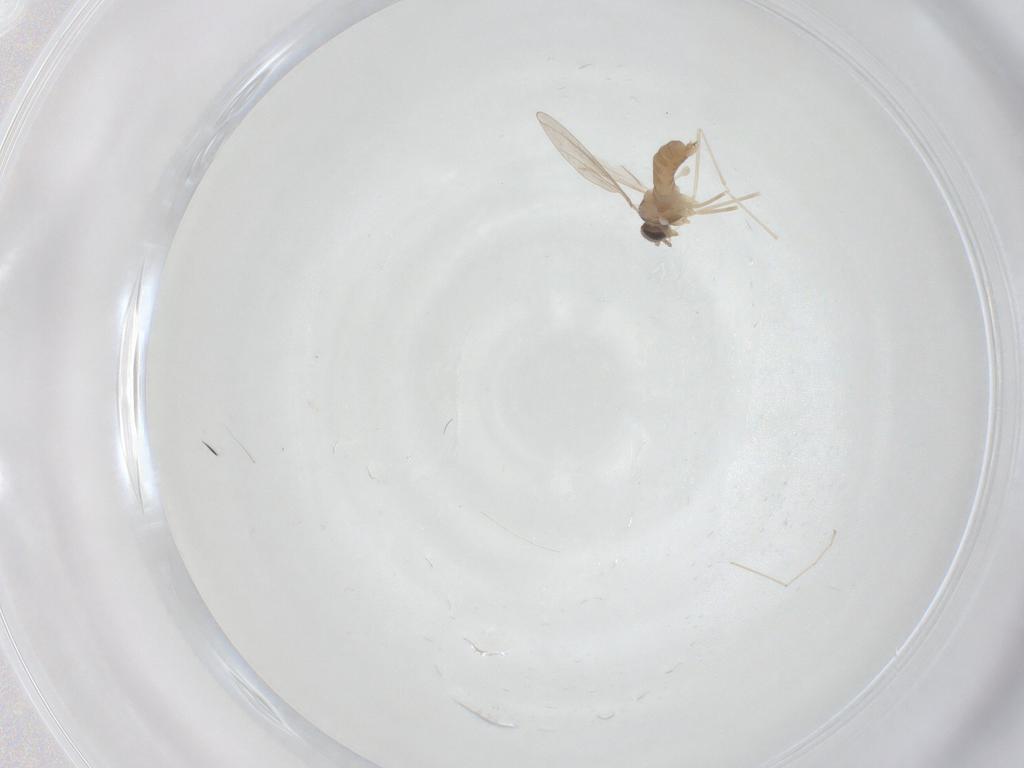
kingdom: Animalia
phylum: Arthropoda
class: Insecta
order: Diptera
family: Cecidomyiidae
